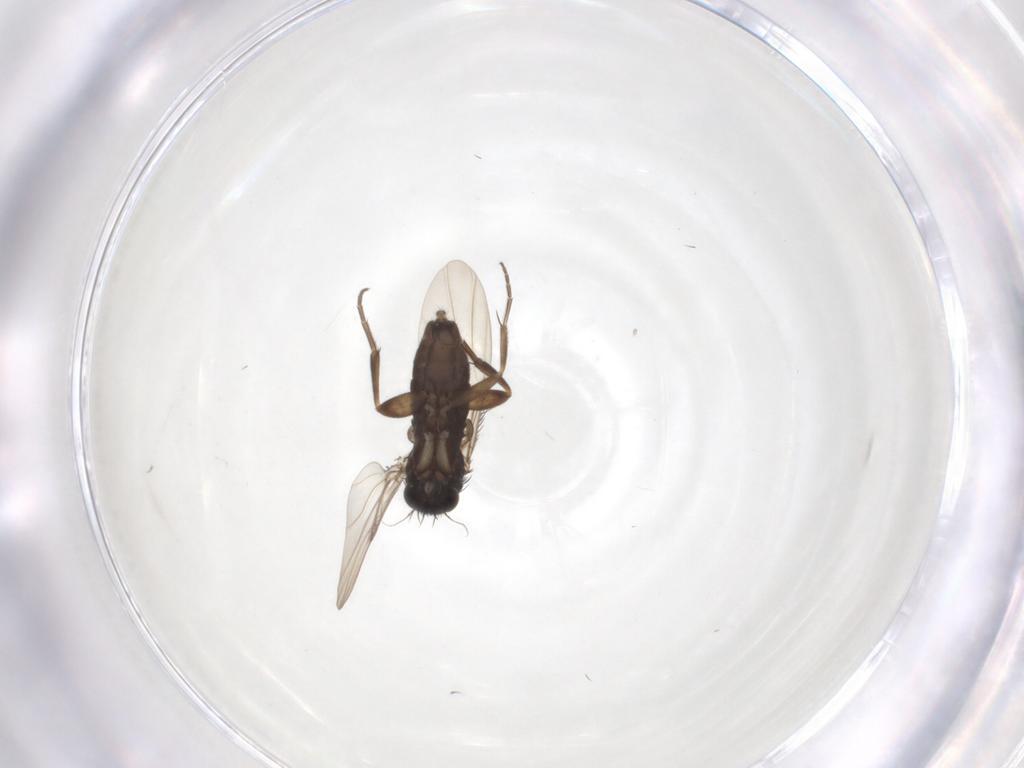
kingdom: Animalia
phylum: Arthropoda
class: Insecta
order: Diptera
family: Phoridae
